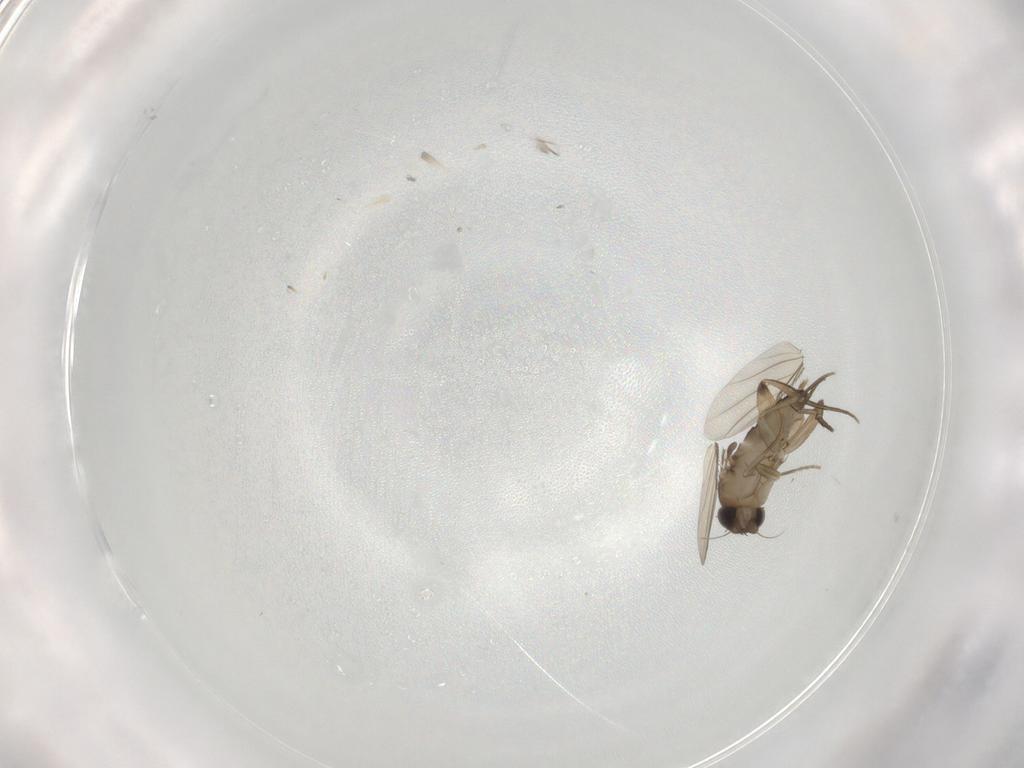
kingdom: Animalia
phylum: Arthropoda
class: Insecta
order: Diptera
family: Phoridae
